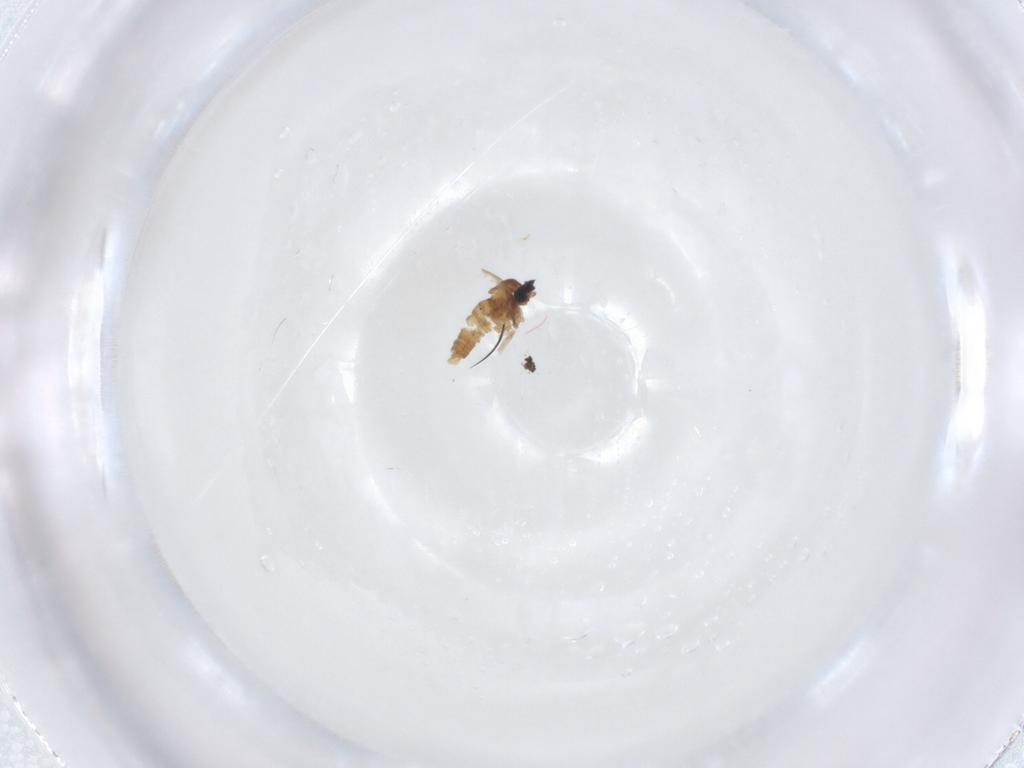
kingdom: Animalia
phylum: Arthropoda
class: Insecta
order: Diptera
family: Cecidomyiidae
